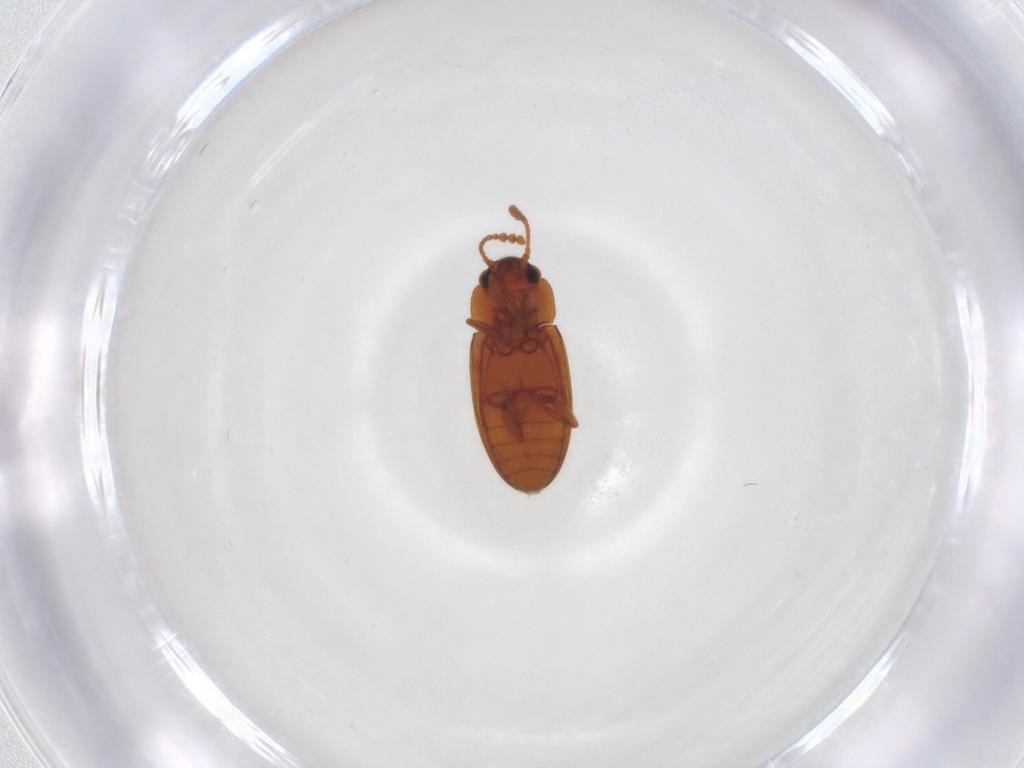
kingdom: Animalia
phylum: Arthropoda
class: Insecta
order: Coleoptera
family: Erotylidae
